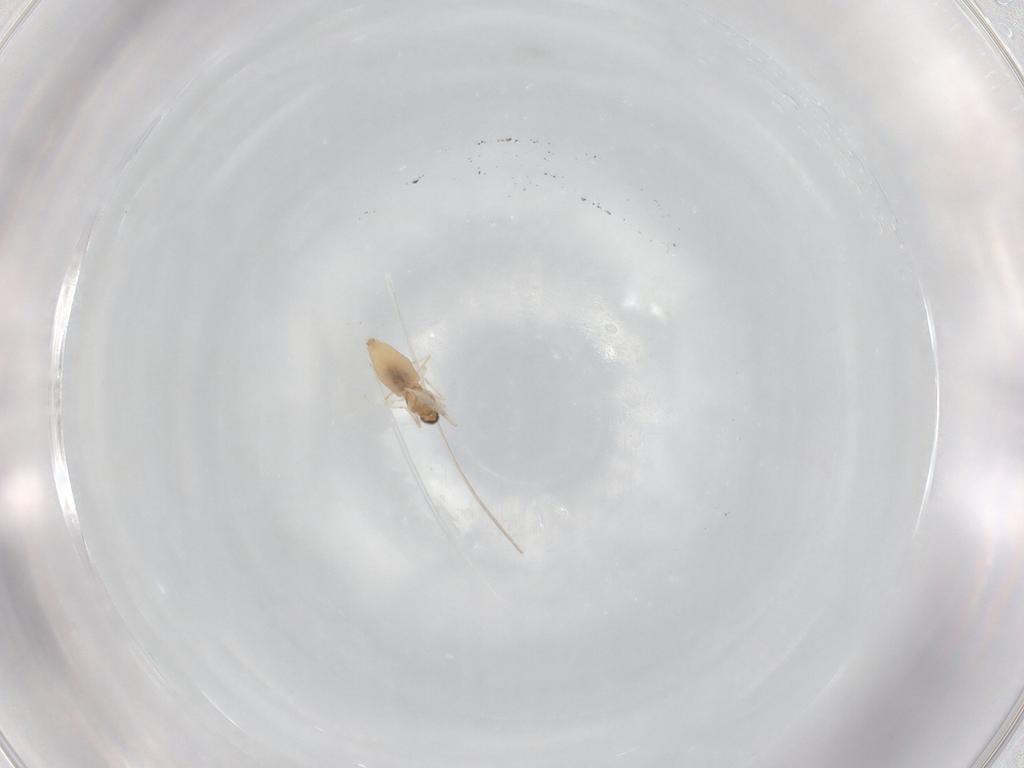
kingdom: Animalia
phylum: Arthropoda
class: Insecta
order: Diptera
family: Cecidomyiidae
